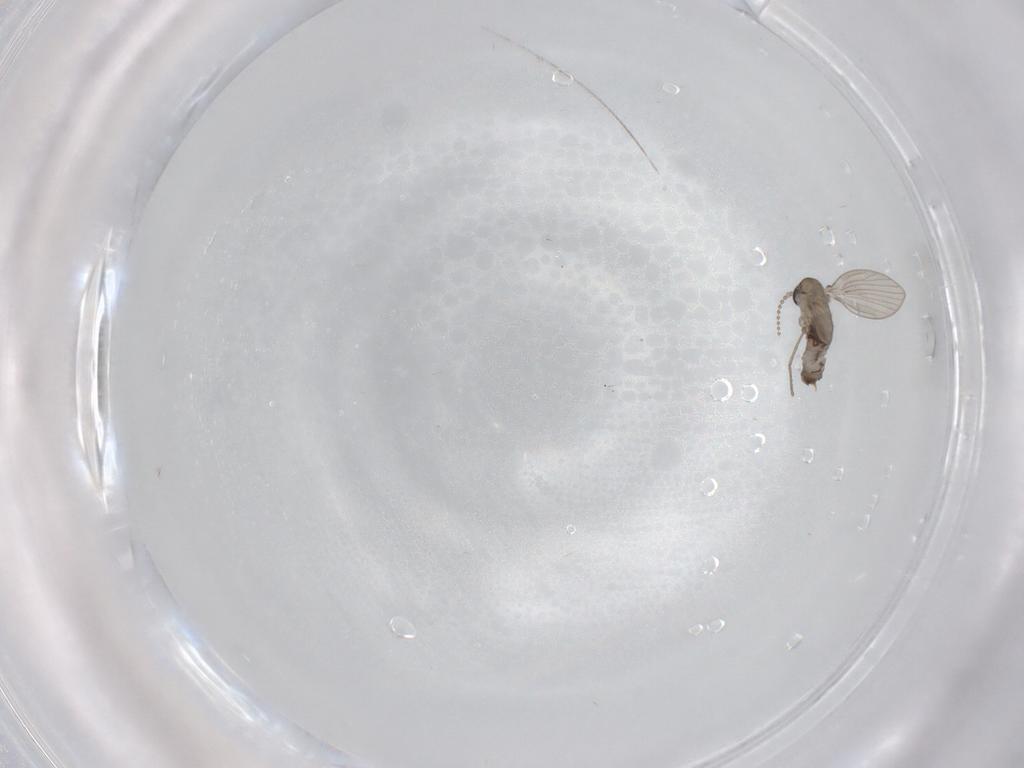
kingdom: Animalia
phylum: Arthropoda
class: Insecta
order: Diptera
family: Psychodidae
